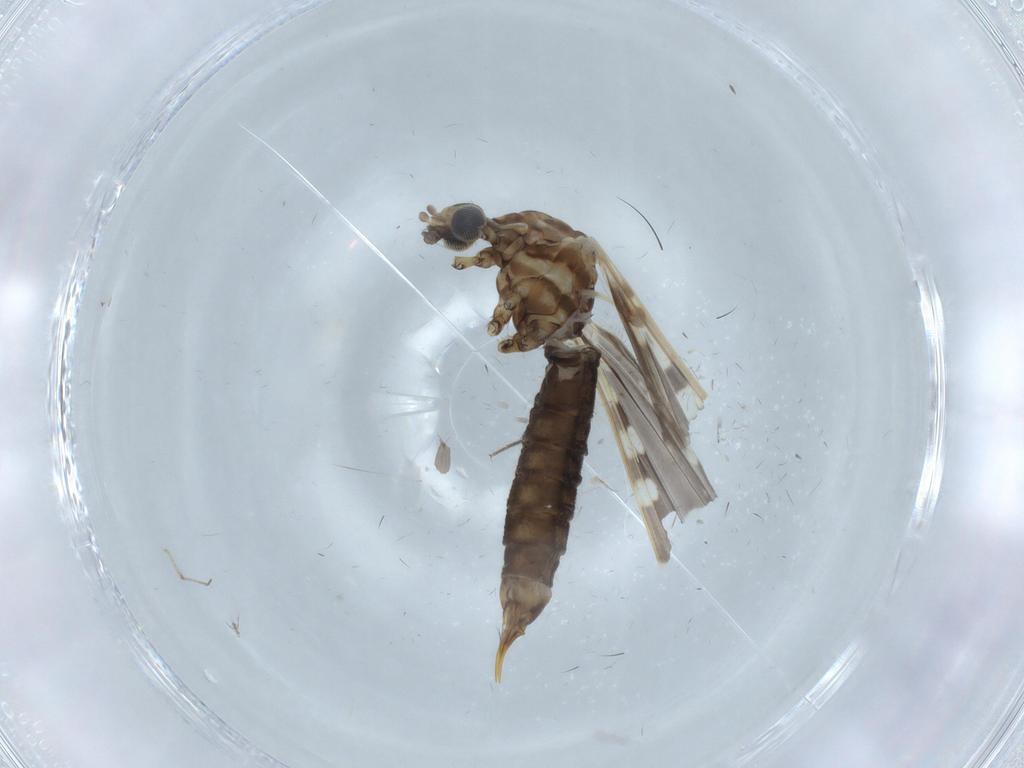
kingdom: Animalia
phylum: Arthropoda
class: Insecta
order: Diptera
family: Limoniidae
